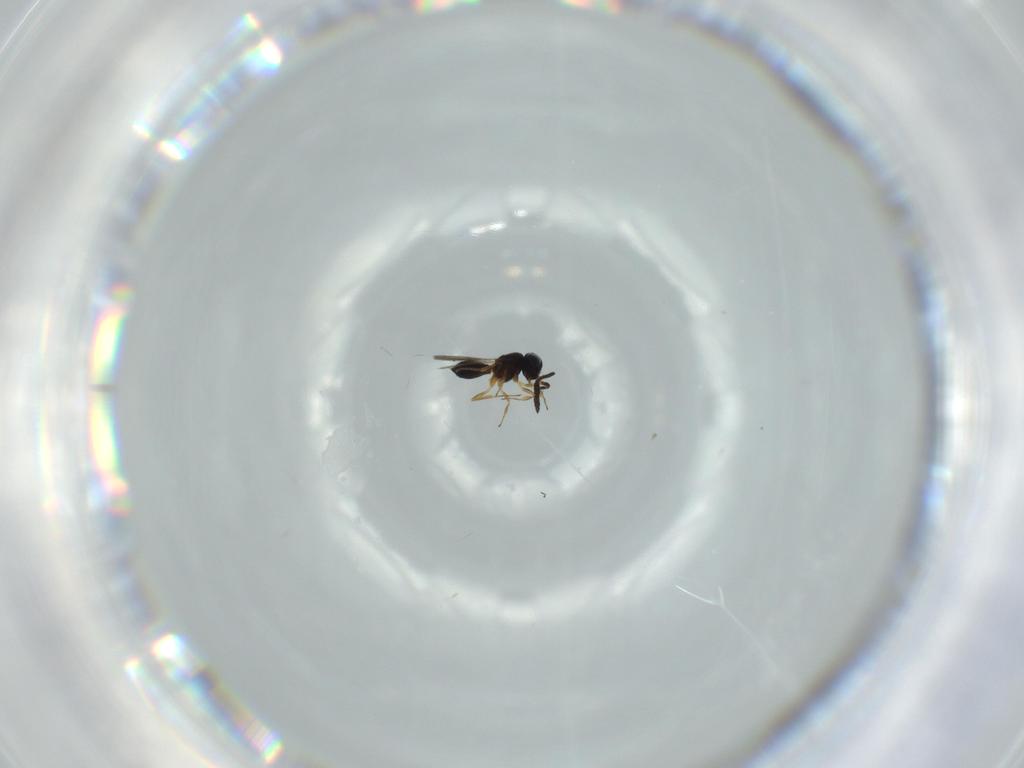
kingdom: Animalia
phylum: Arthropoda
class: Insecta
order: Hymenoptera
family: Scelionidae
